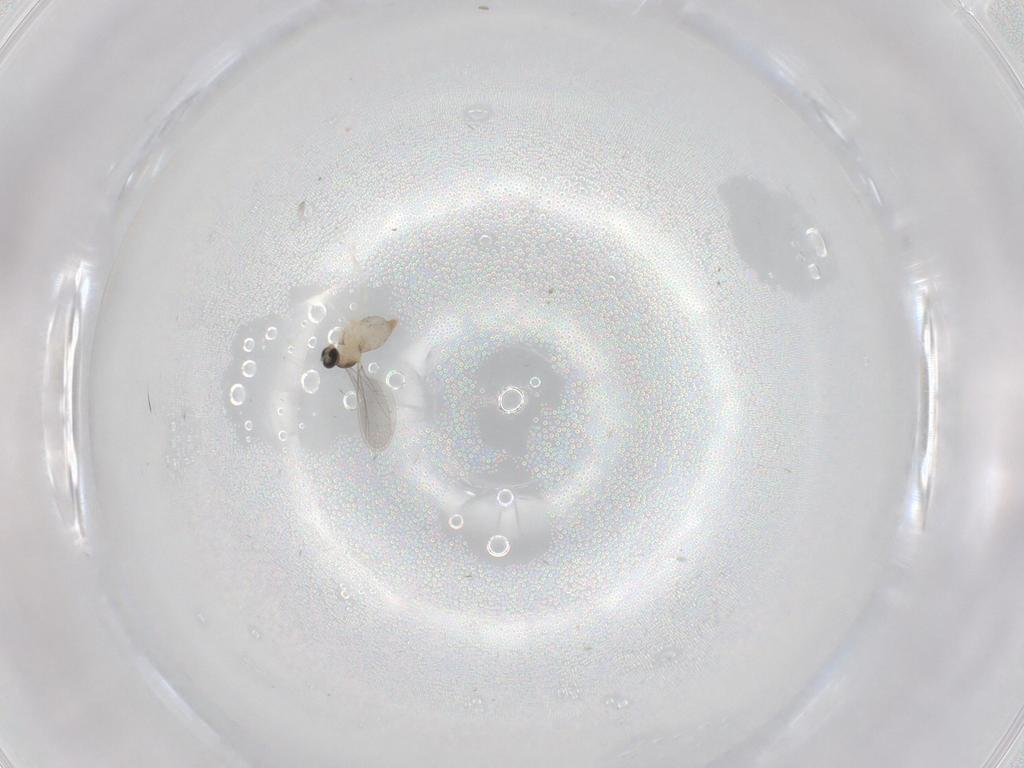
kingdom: Animalia
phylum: Arthropoda
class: Insecta
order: Diptera
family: Cecidomyiidae
